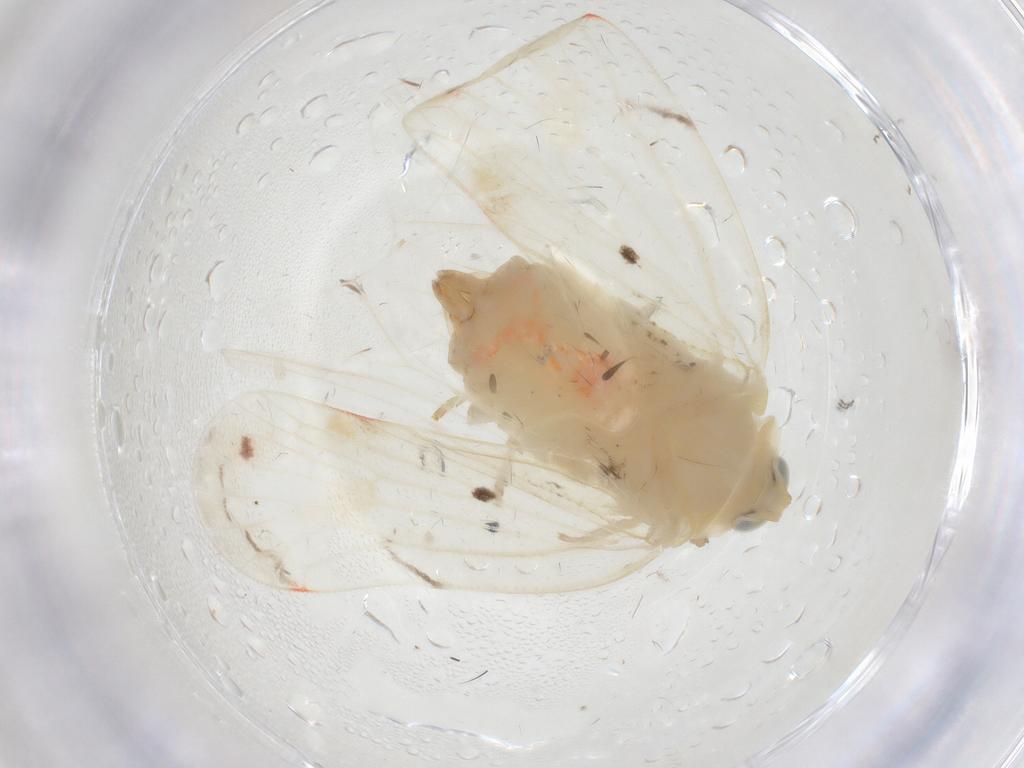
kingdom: Animalia
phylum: Arthropoda
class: Insecta
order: Hemiptera
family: Derbidae
